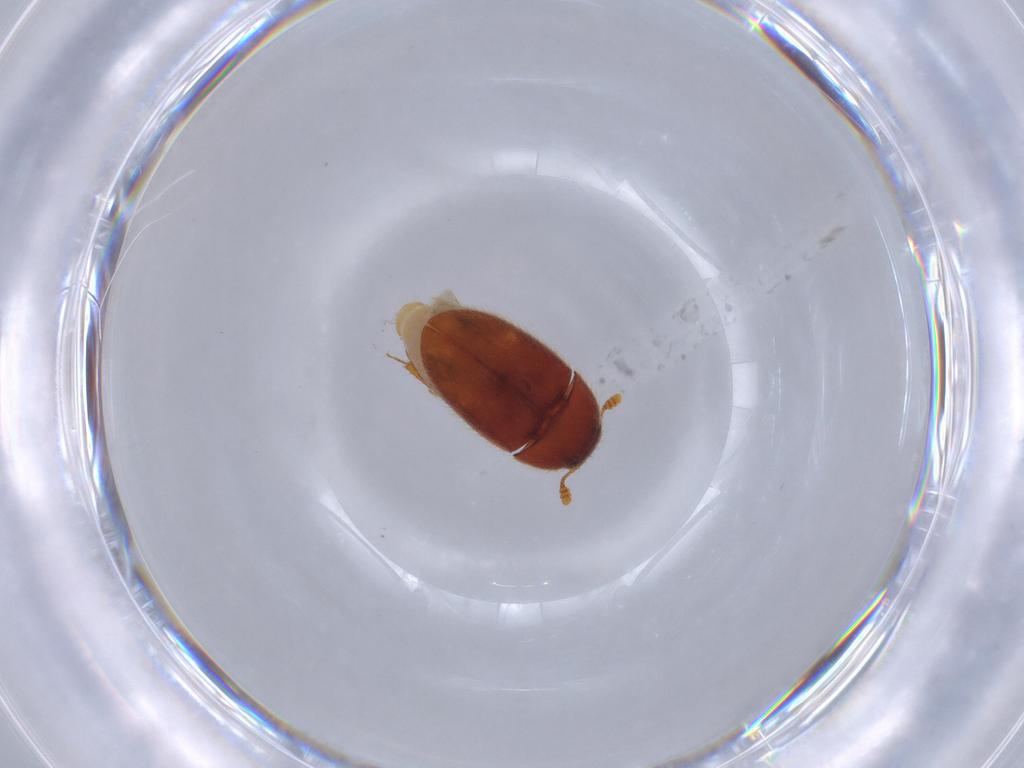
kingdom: Animalia
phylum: Arthropoda
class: Insecta
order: Coleoptera
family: Biphyllidae
